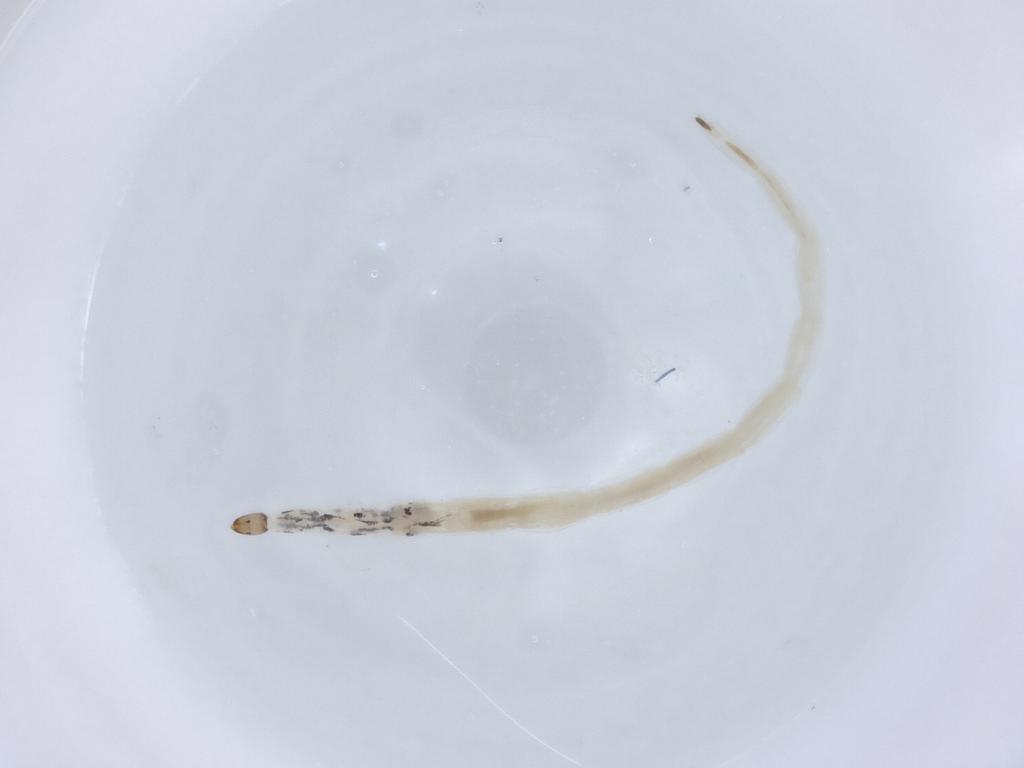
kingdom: Animalia
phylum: Arthropoda
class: Insecta
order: Diptera
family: Ceratopogonidae
